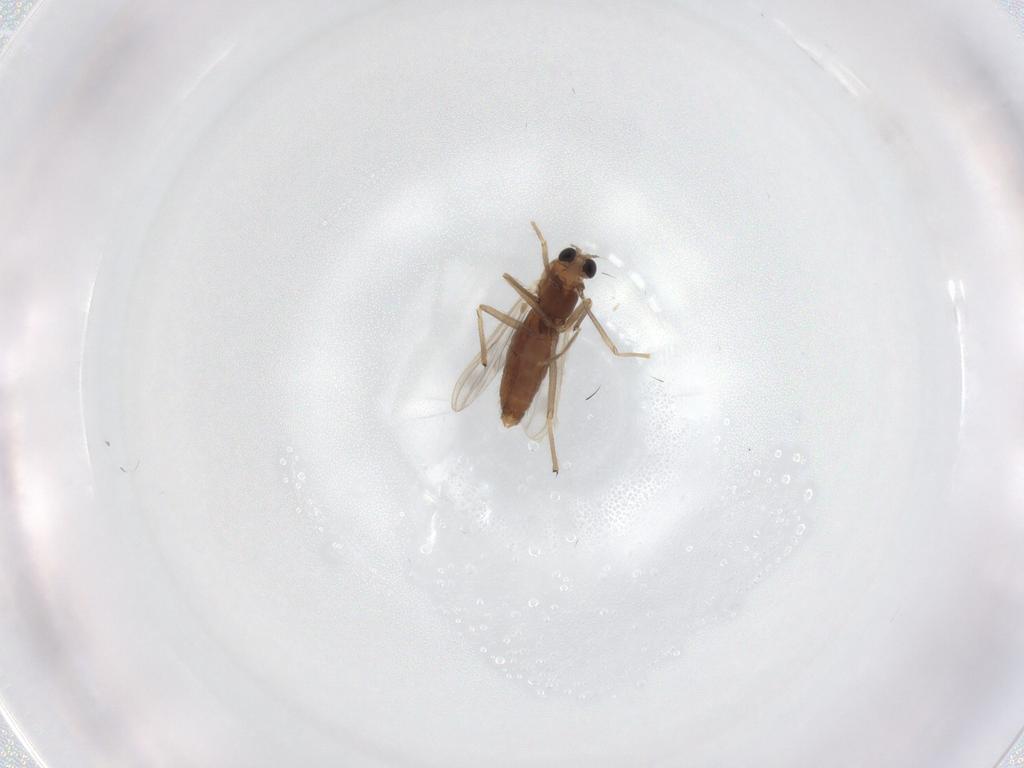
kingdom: Animalia
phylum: Arthropoda
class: Insecta
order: Diptera
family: Chironomidae
